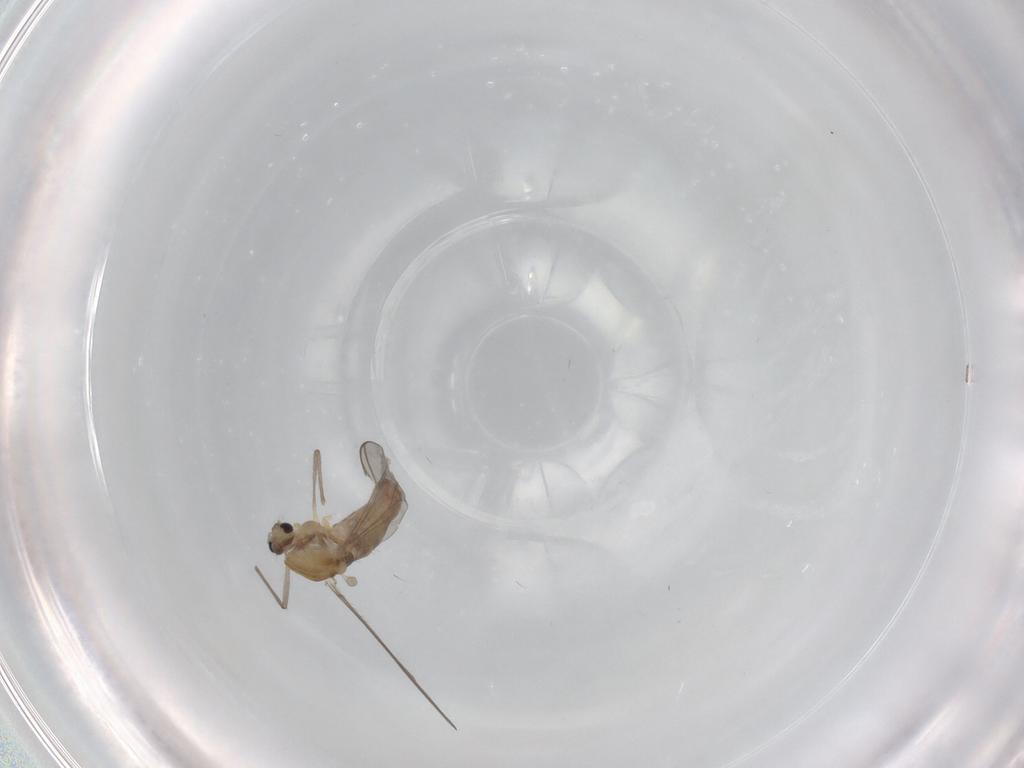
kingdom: Animalia
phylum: Arthropoda
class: Insecta
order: Diptera
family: Chironomidae
